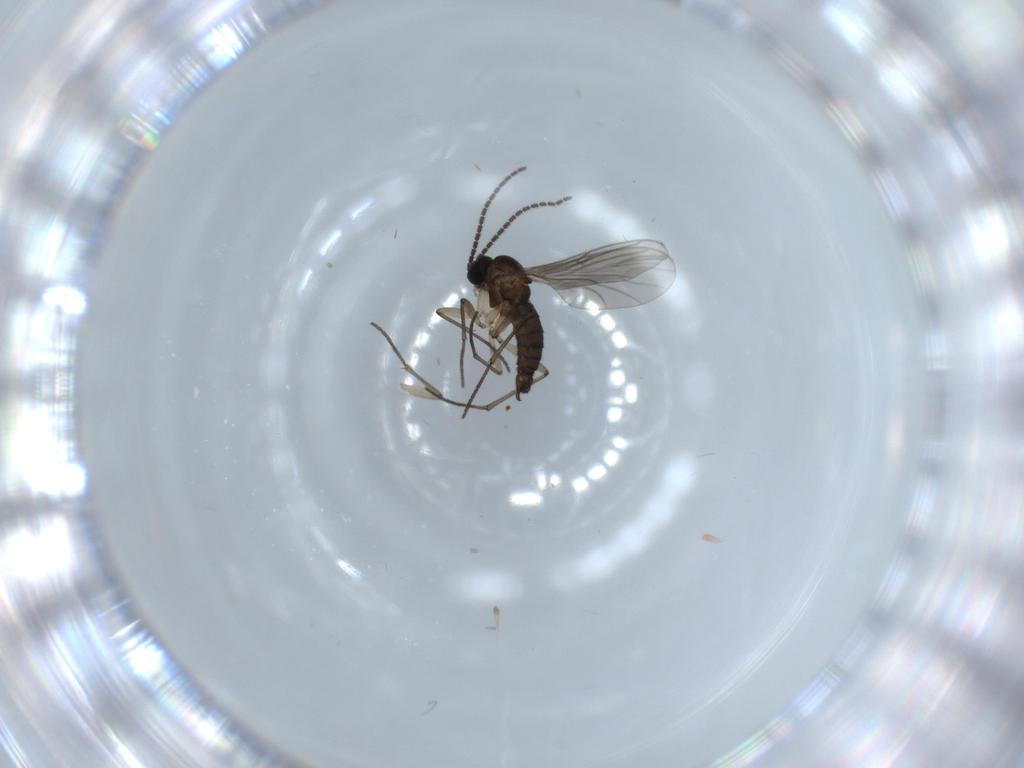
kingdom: Animalia
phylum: Arthropoda
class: Insecta
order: Diptera
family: Sciaridae
